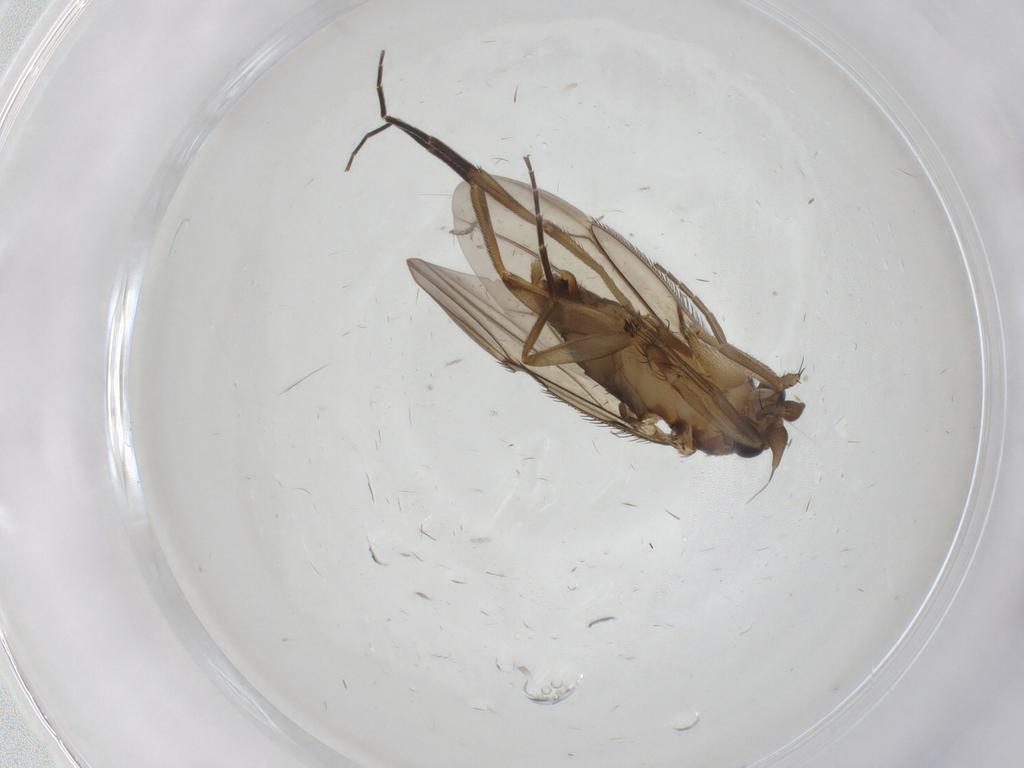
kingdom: Animalia
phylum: Arthropoda
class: Insecta
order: Diptera
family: Phoridae
